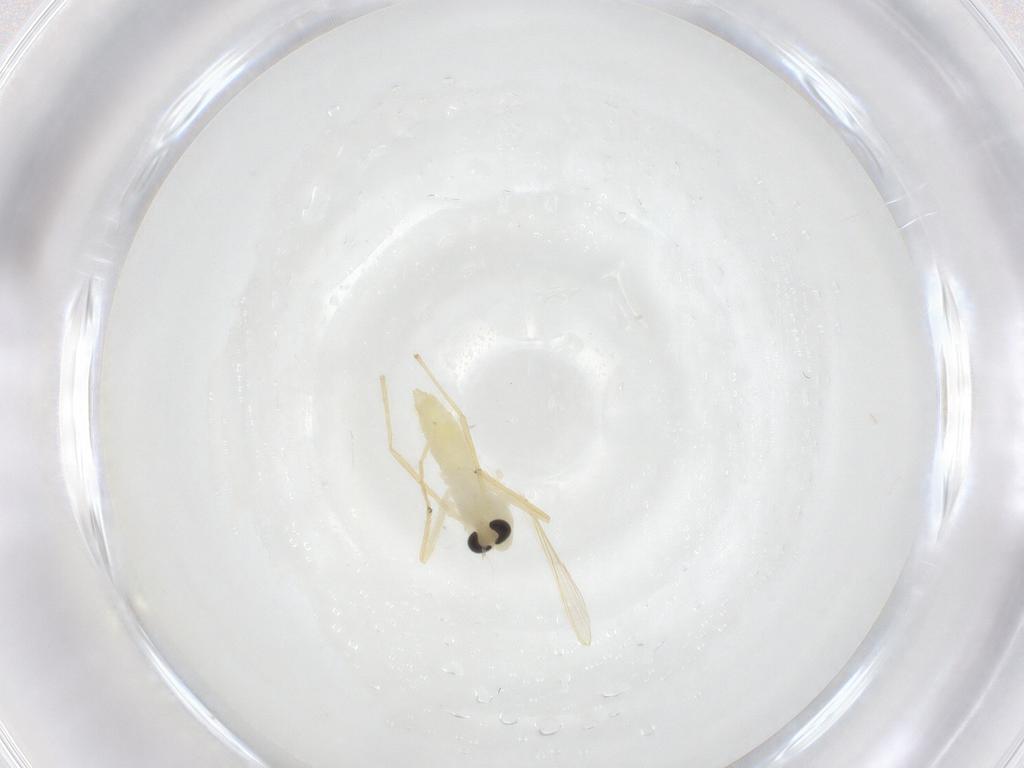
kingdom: Animalia
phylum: Arthropoda
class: Insecta
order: Diptera
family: Chironomidae
